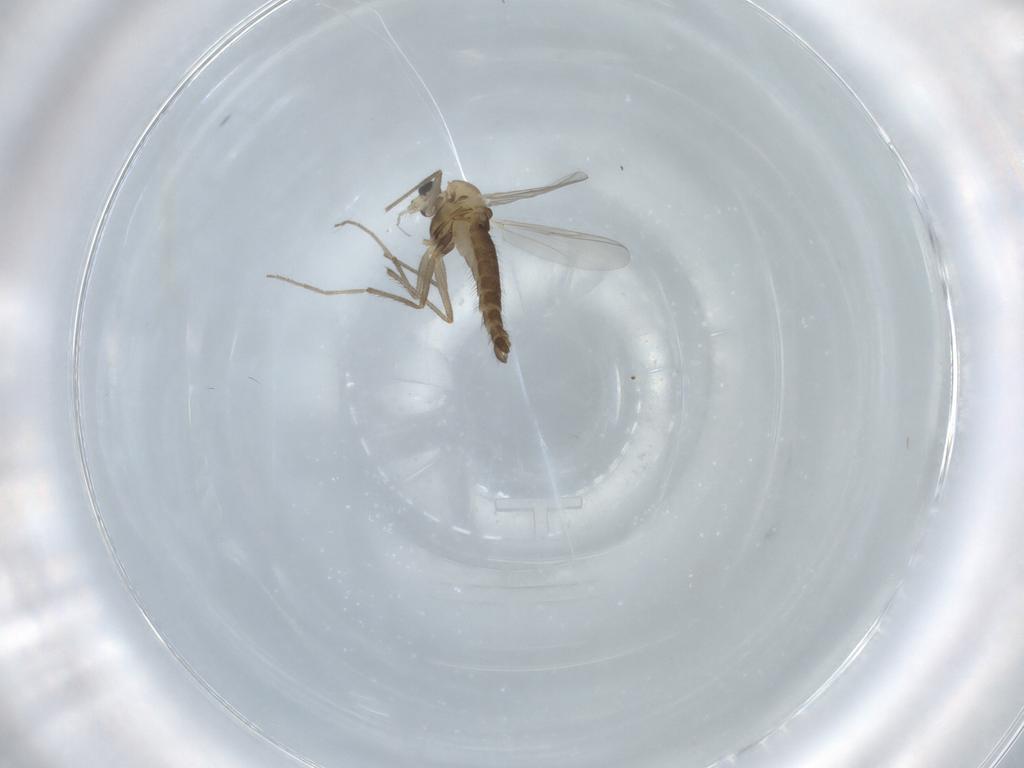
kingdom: Animalia
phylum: Arthropoda
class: Insecta
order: Diptera
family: Chironomidae
